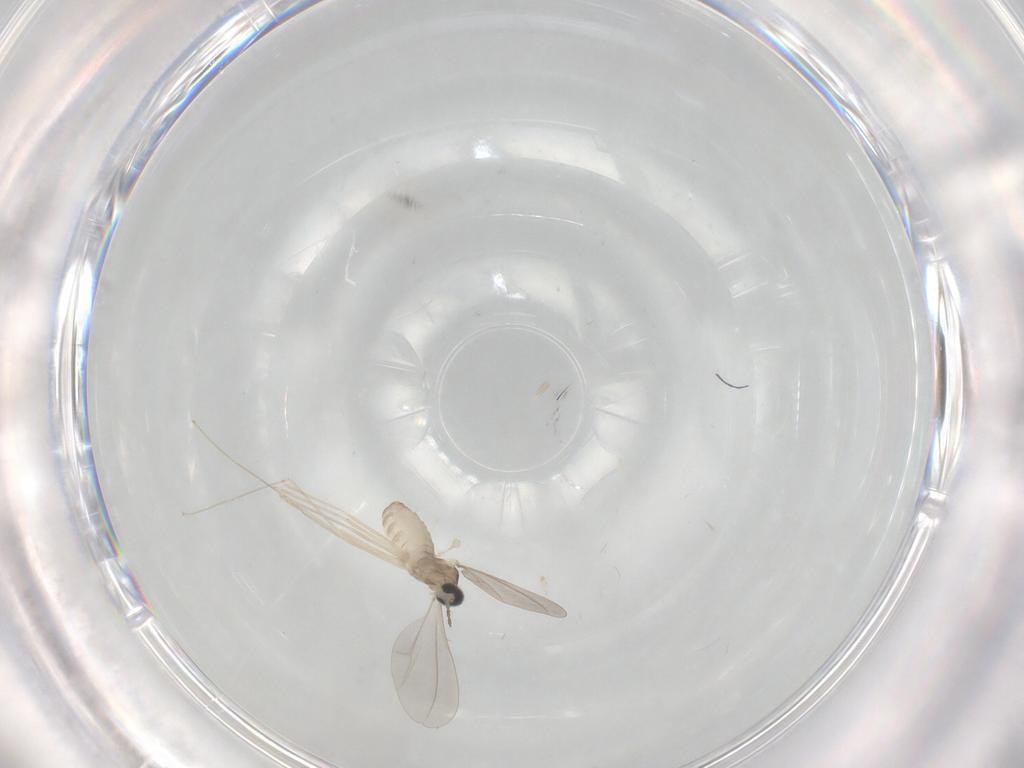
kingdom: Animalia
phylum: Arthropoda
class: Insecta
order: Diptera
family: Cecidomyiidae
